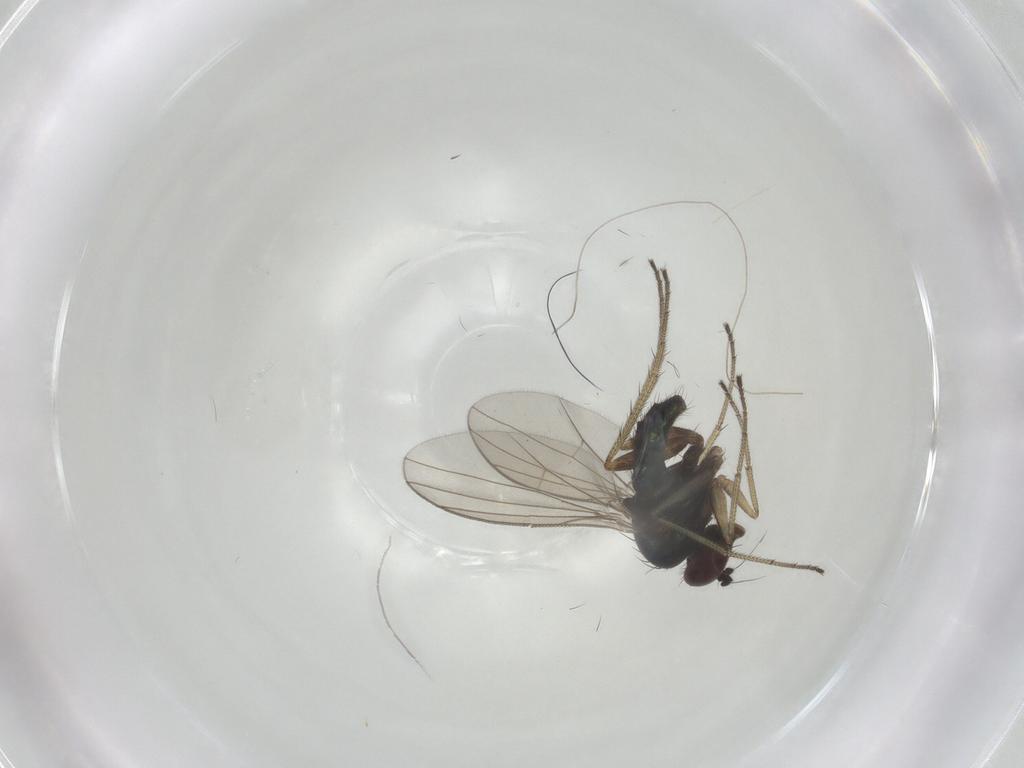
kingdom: Animalia
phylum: Arthropoda
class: Insecta
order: Diptera
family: Dolichopodidae
